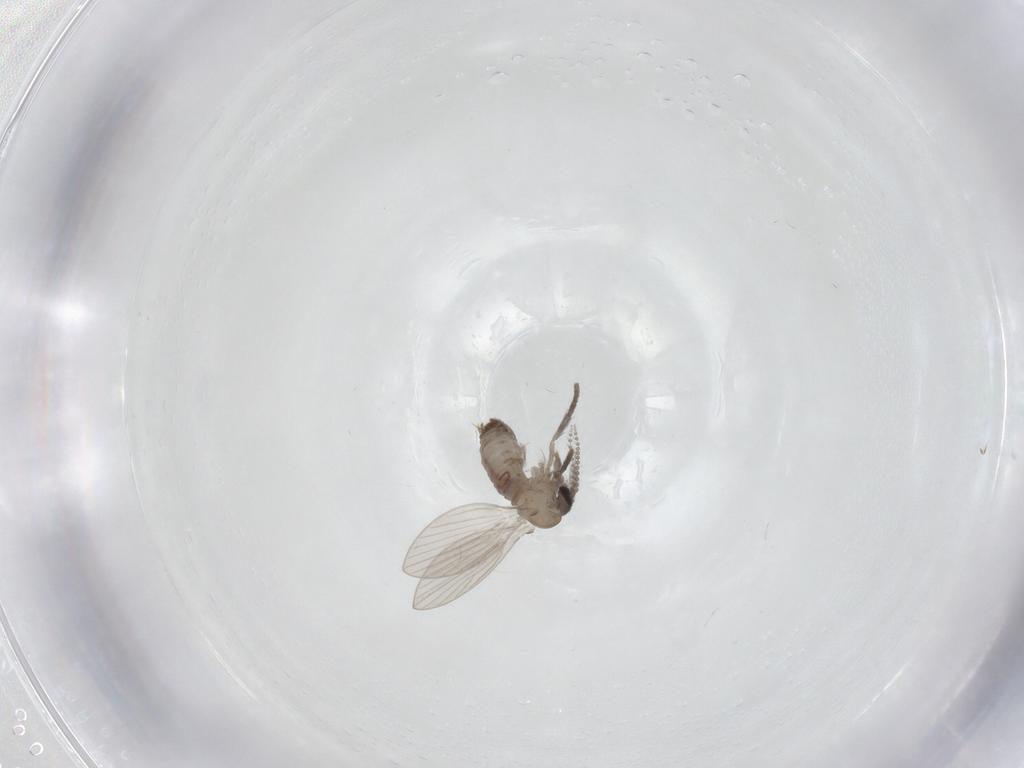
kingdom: Animalia
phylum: Arthropoda
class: Insecta
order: Diptera
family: Psychodidae
